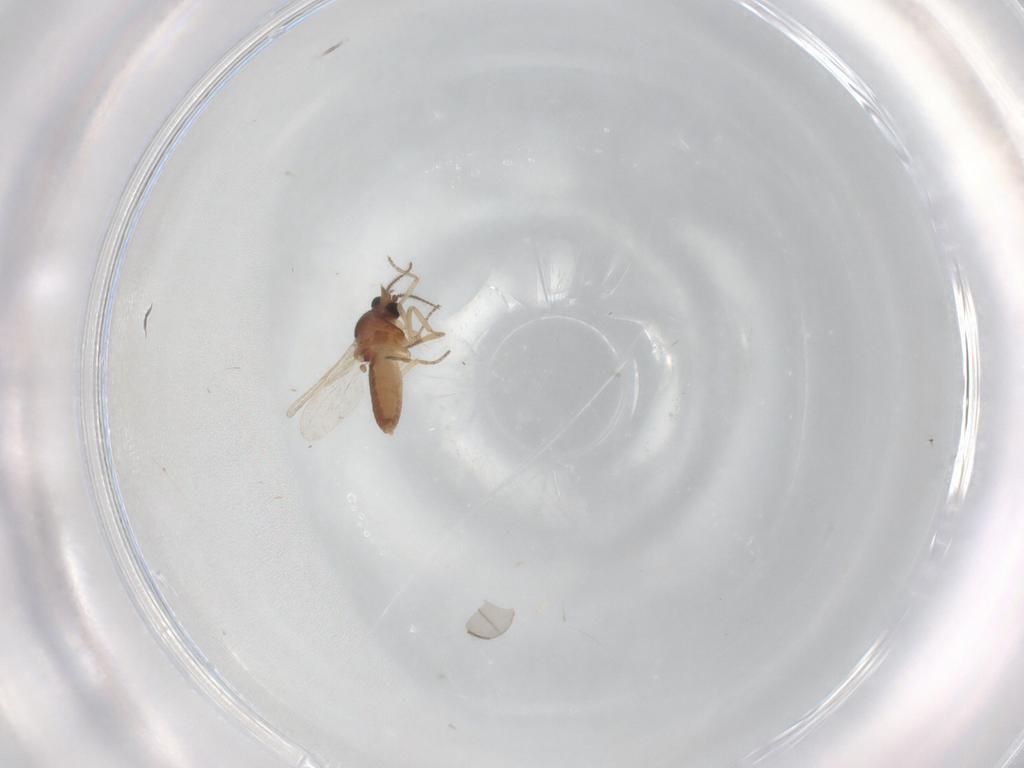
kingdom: Animalia
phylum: Arthropoda
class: Insecta
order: Diptera
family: Ceratopogonidae
